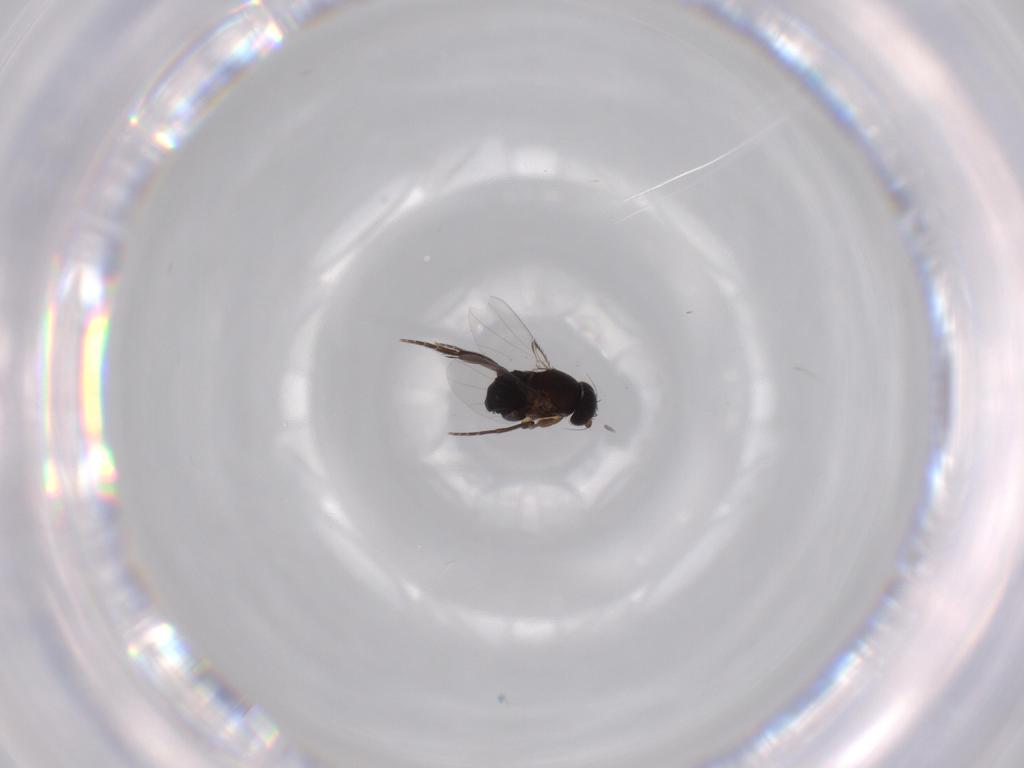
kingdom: Animalia
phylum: Arthropoda
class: Insecta
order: Diptera
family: Phoridae
